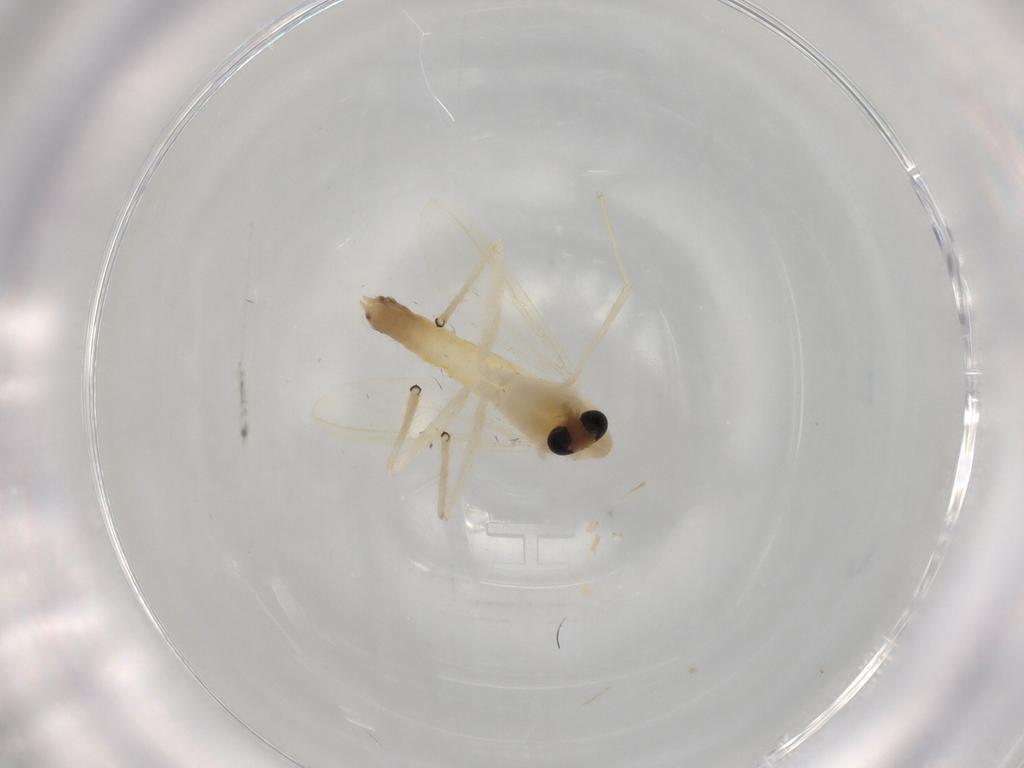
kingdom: Animalia
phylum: Arthropoda
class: Insecta
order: Diptera
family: Chironomidae
